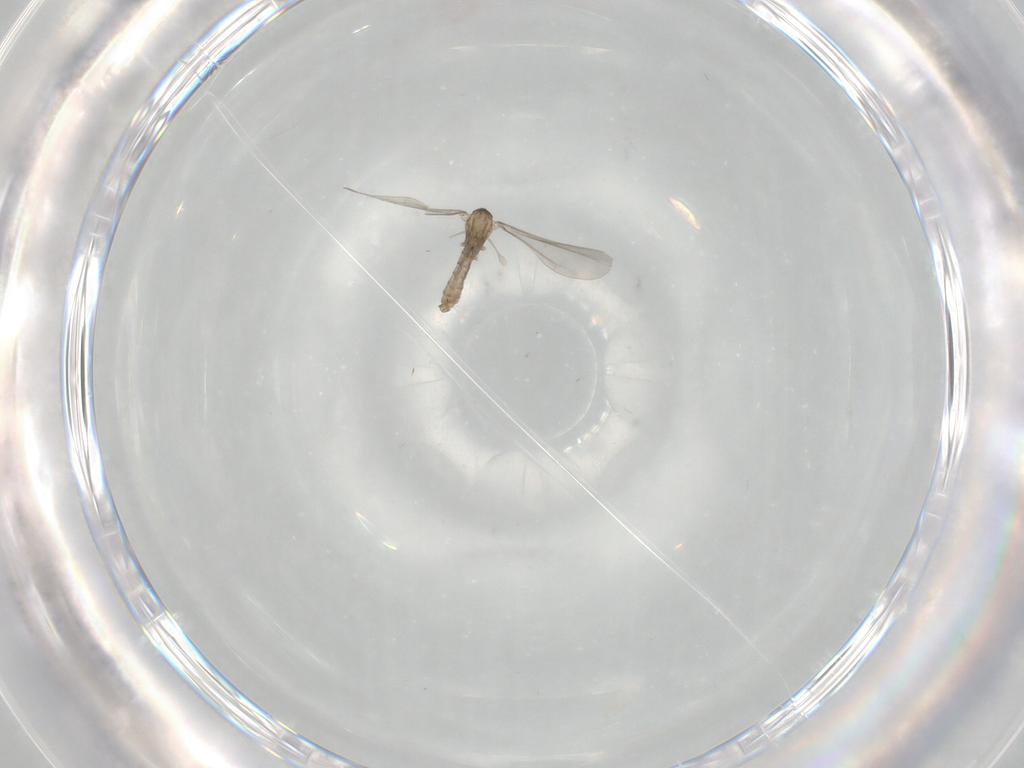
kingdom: Animalia
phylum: Arthropoda
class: Insecta
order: Diptera
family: Cecidomyiidae
